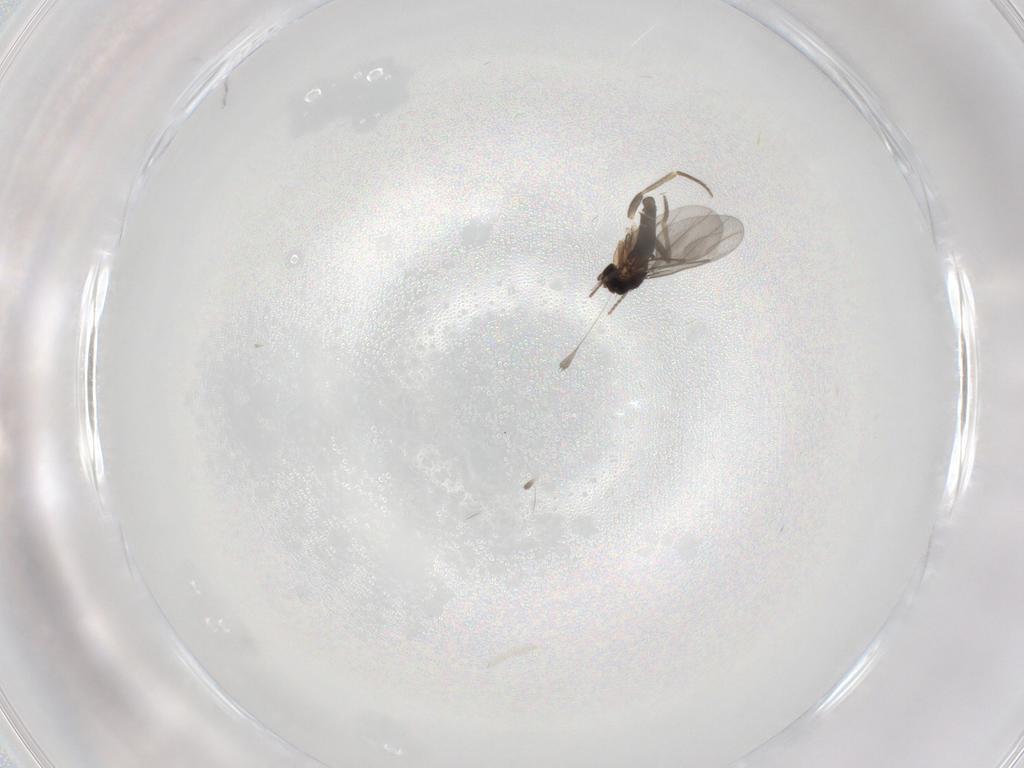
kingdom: Animalia
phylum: Arthropoda
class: Insecta
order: Diptera
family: Phoridae
